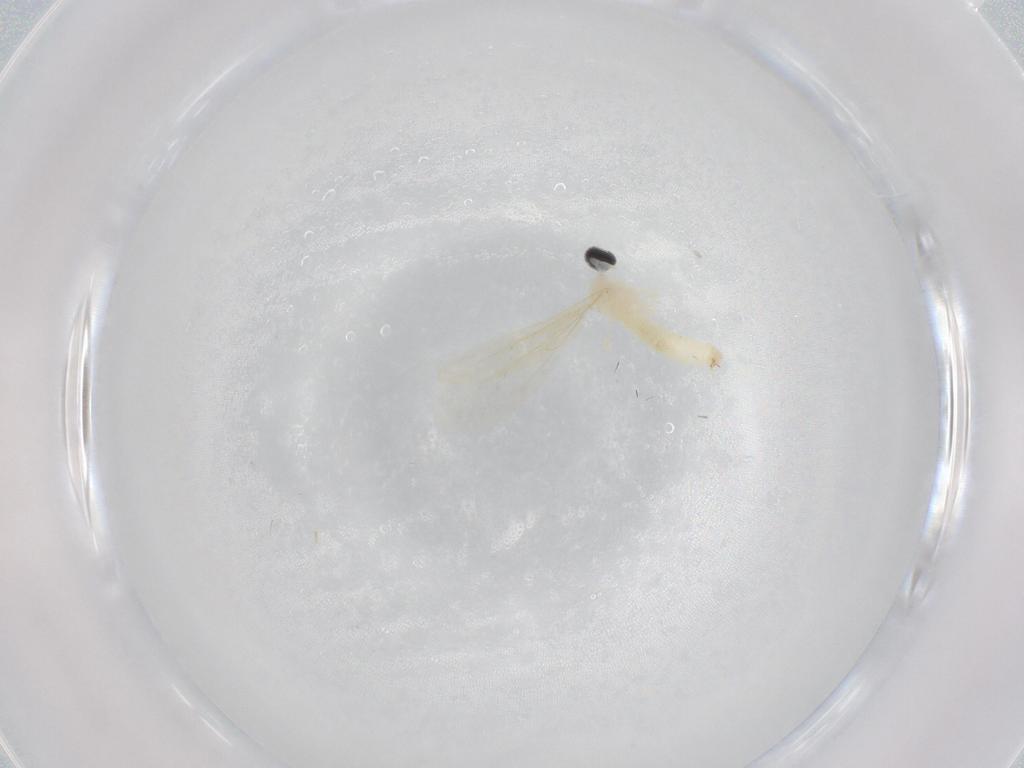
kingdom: Animalia
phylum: Arthropoda
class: Insecta
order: Diptera
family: Cecidomyiidae
